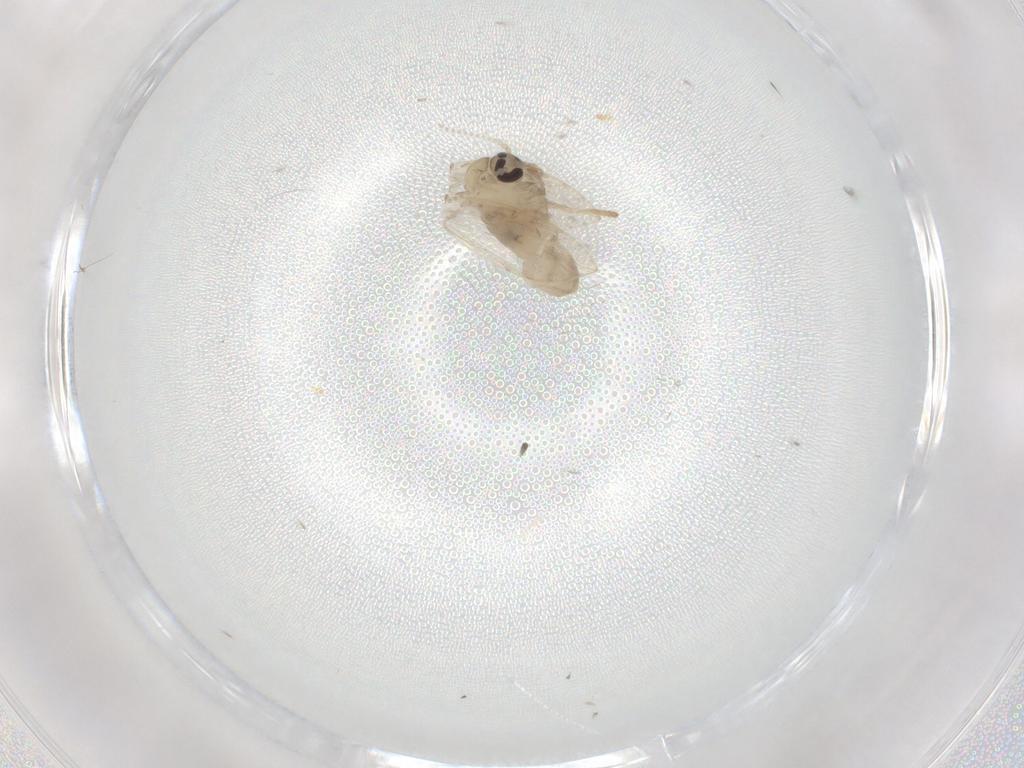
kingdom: Animalia
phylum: Arthropoda
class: Insecta
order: Diptera
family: Psychodidae
